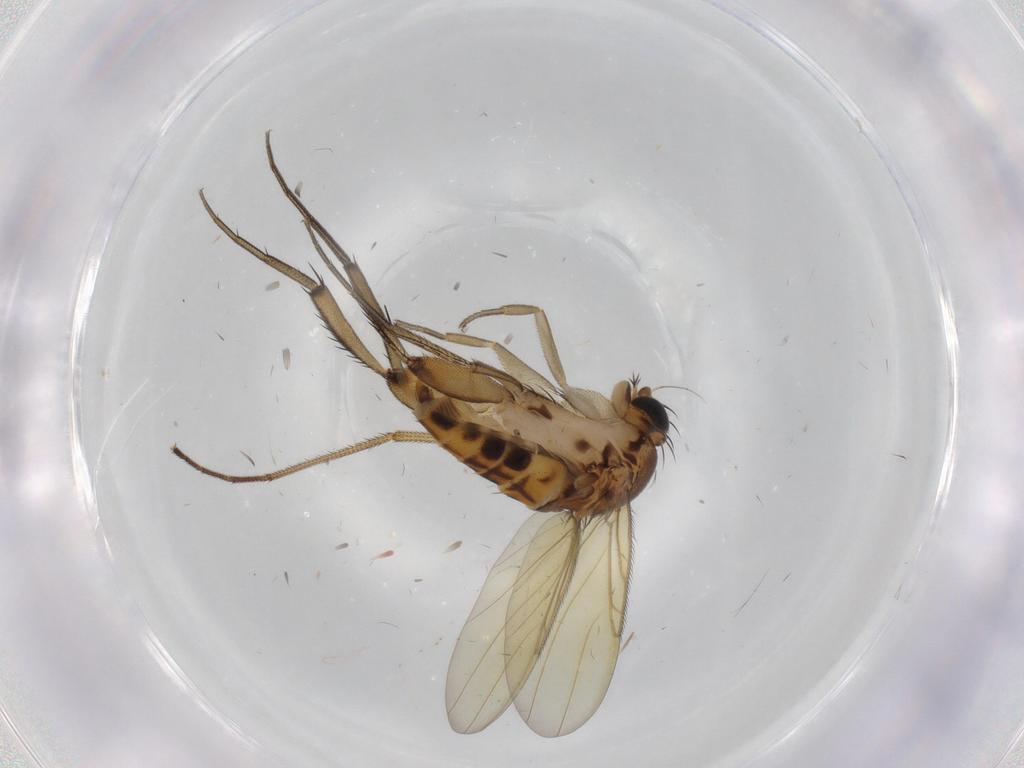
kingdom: Animalia
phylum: Arthropoda
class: Insecta
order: Diptera
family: Dolichopodidae
